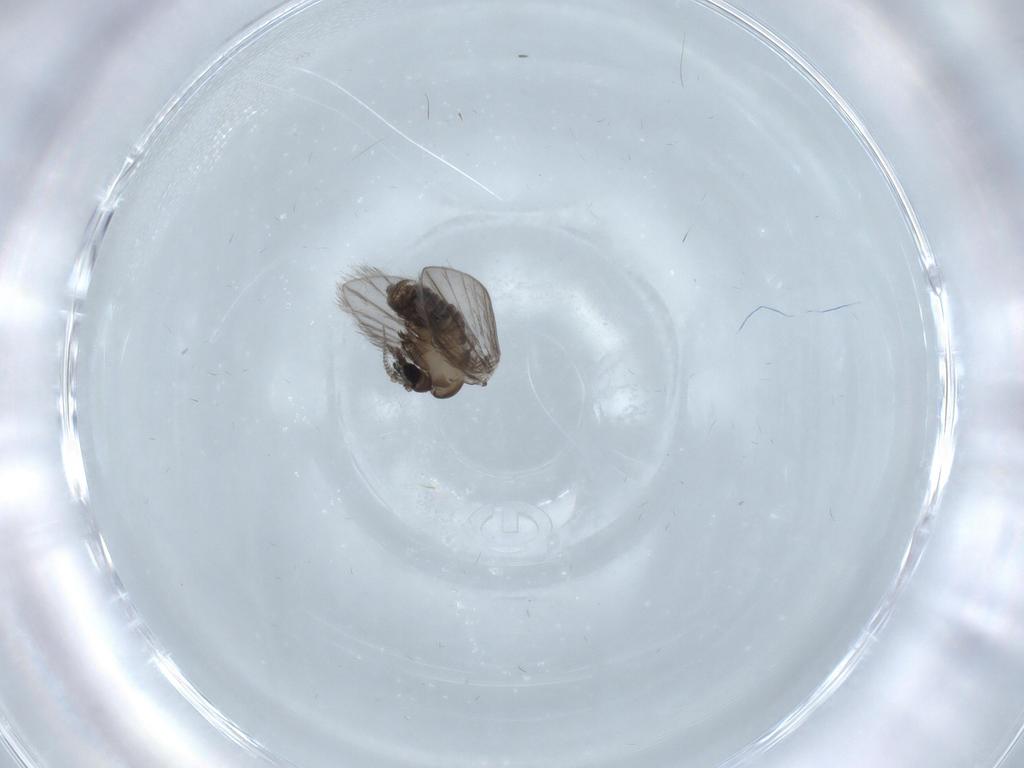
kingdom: Animalia
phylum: Arthropoda
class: Insecta
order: Diptera
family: Psychodidae
